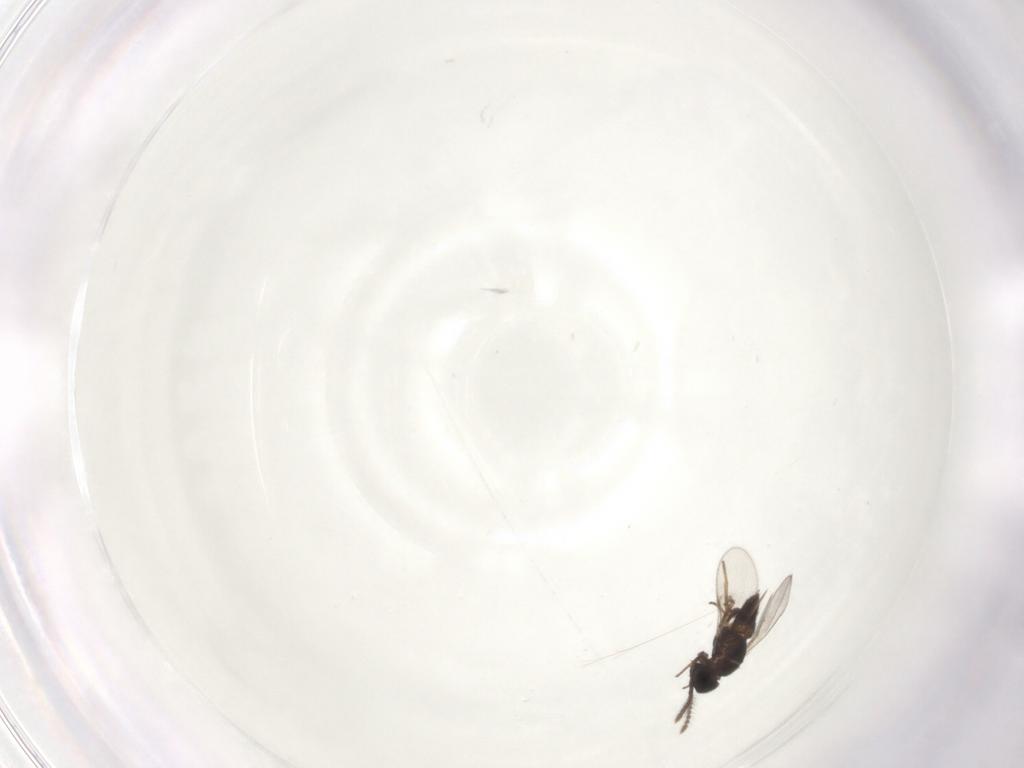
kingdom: Animalia
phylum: Arthropoda
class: Insecta
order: Hymenoptera
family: Encyrtidae
